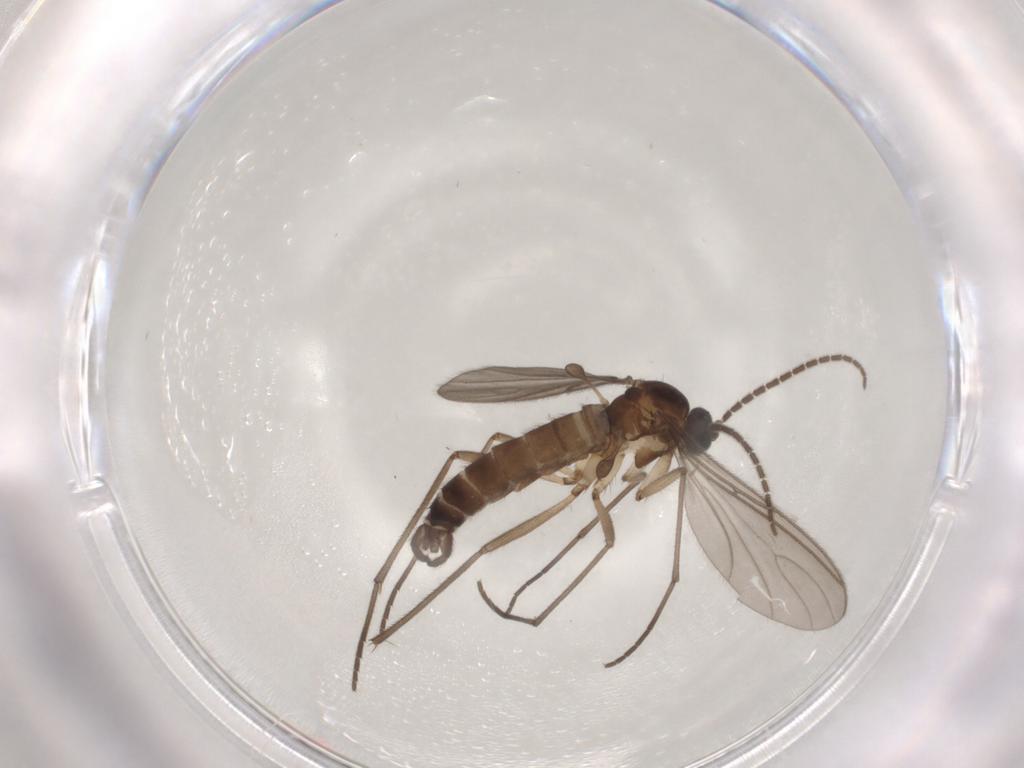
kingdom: Animalia
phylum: Arthropoda
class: Insecta
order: Diptera
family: Sciaridae
